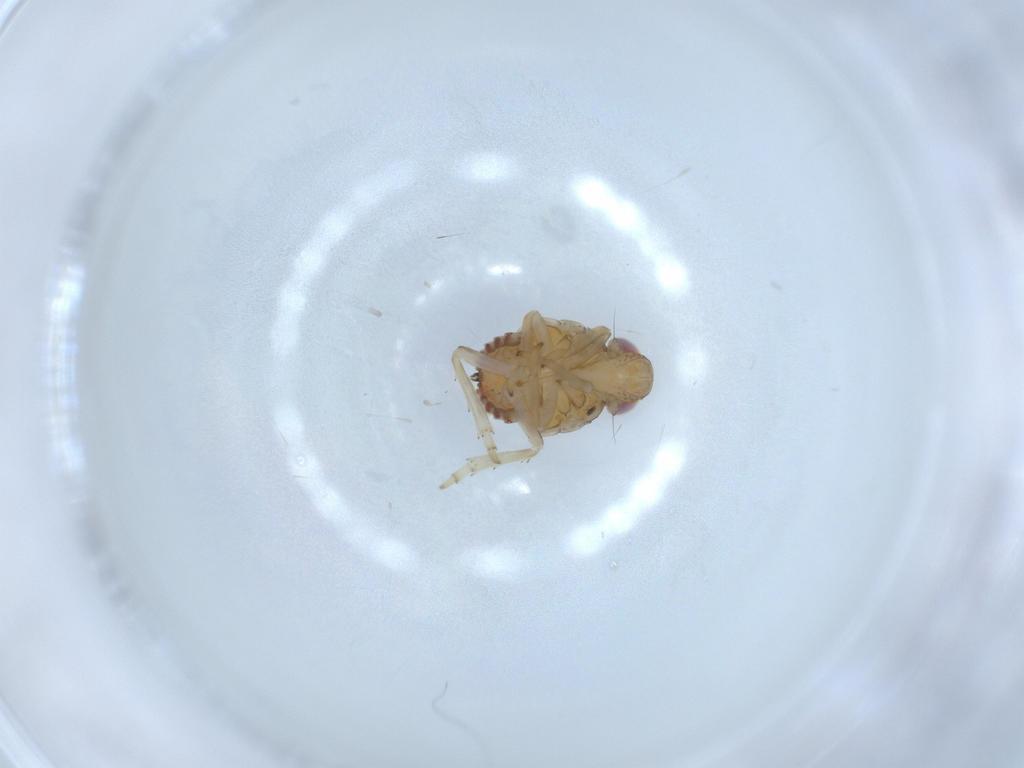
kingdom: Animalia
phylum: Arthropoda
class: Insecta
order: Hemiptera
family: Issidae
